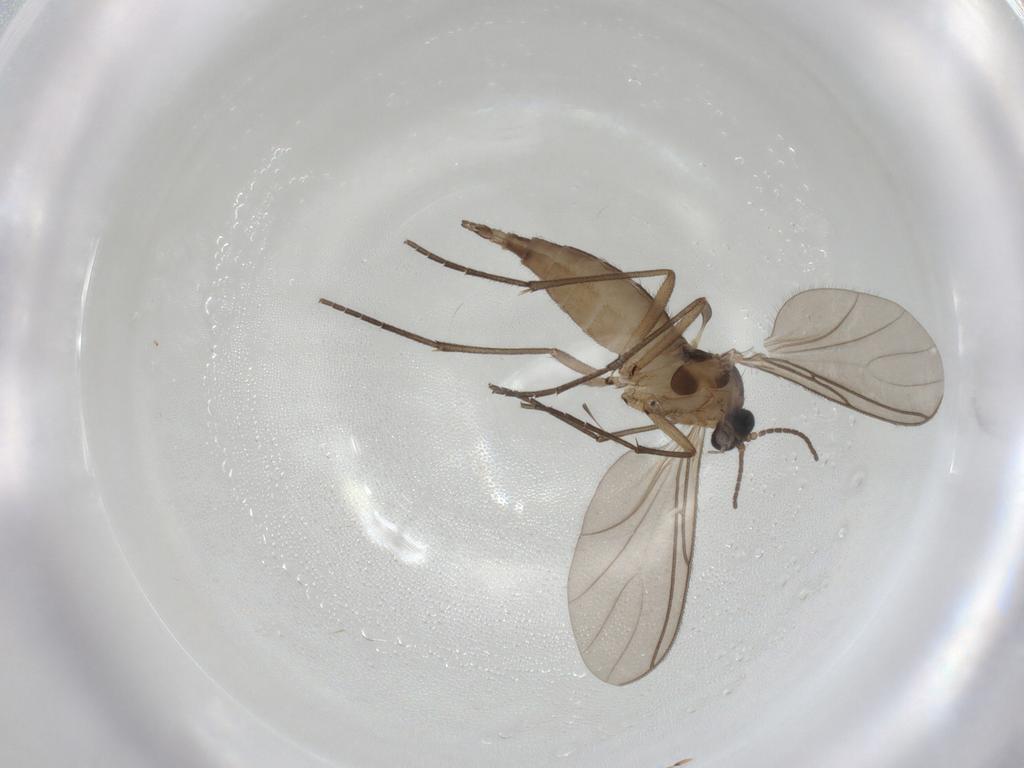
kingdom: Animalia
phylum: Arthropoda
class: Insecta
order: Diptera
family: Sciaridae
